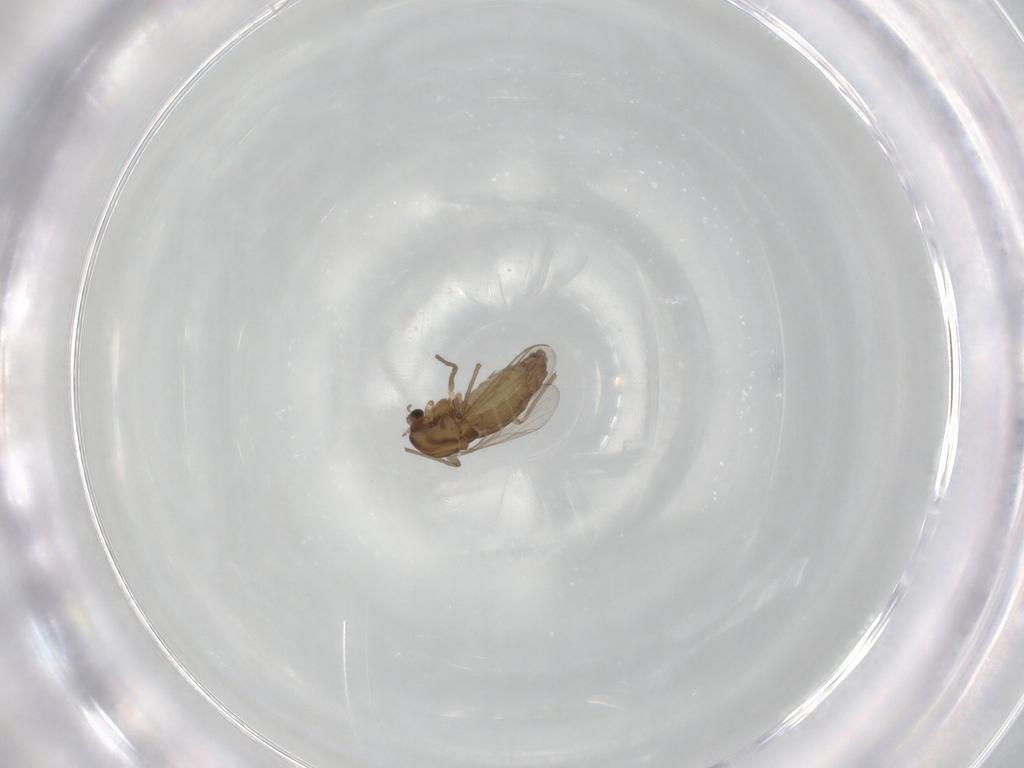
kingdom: Animalia
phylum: Arthropoda
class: Insecta
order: Diptera
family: Chironomidae
